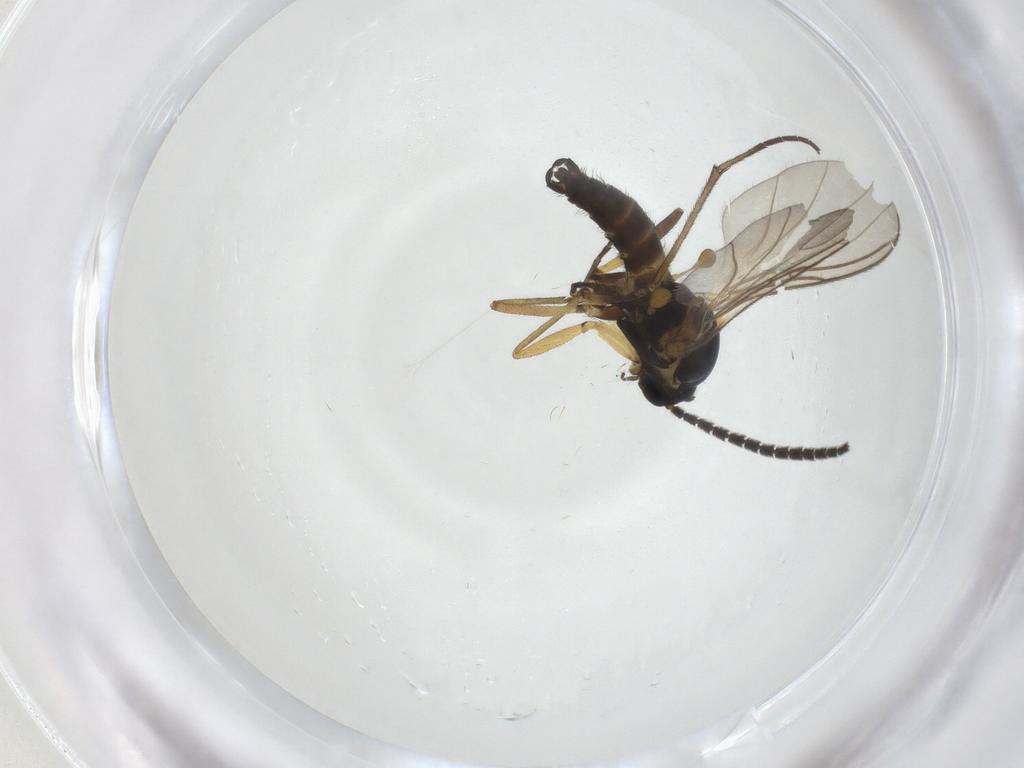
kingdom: Animalia
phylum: Arthropoda
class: Insecta
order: Diptera
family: Sciaridae
